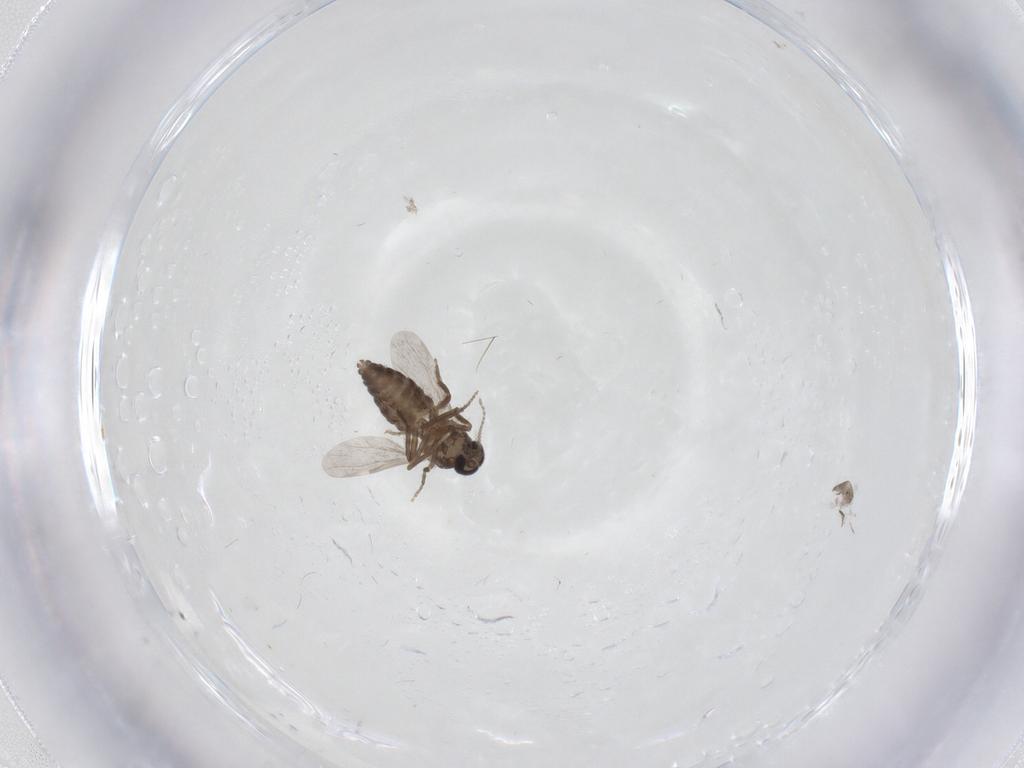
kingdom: Animalia
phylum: Arthropoda
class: Insecta
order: Diptera
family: Ceratopogonidae
